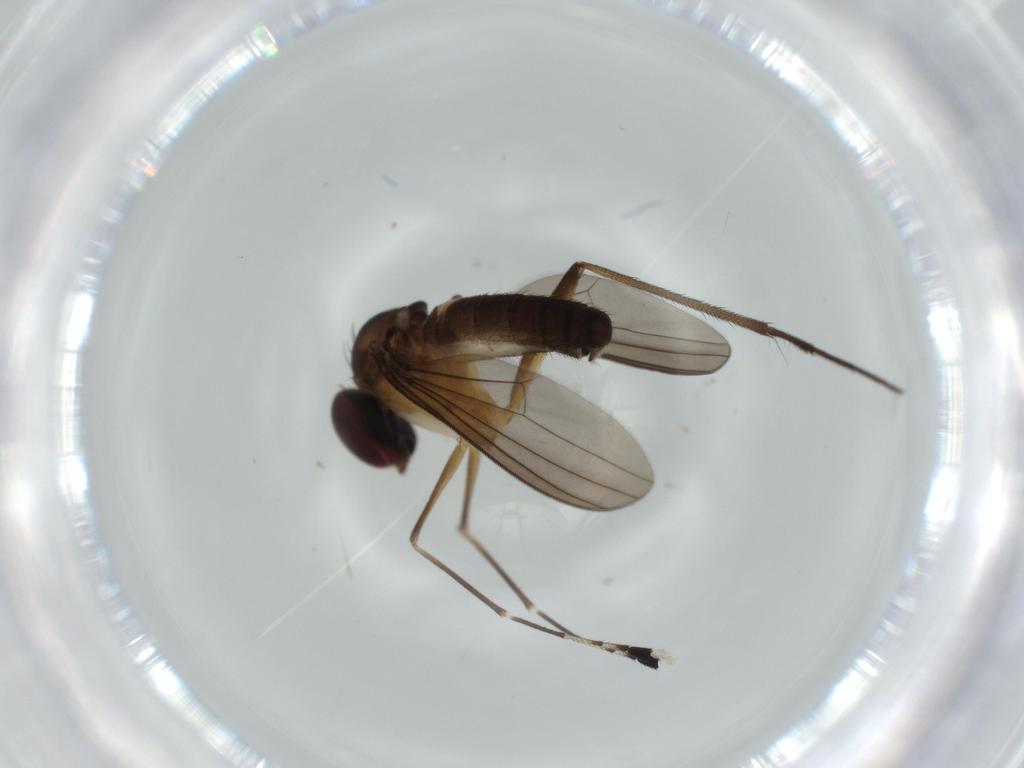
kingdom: Animalia
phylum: Arthropoda
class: Insecta
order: Diptera
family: Dolichopodidae
